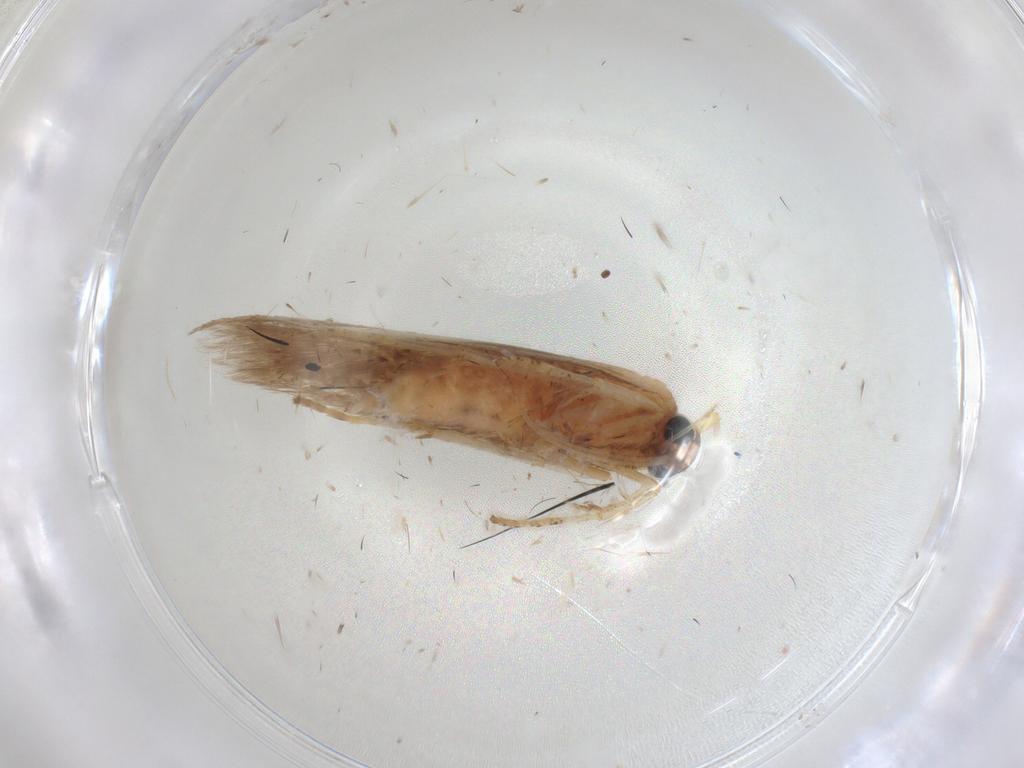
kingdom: Animalia
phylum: Arthropoda
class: Insecta
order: Lepidoptera
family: Blastobasidae
